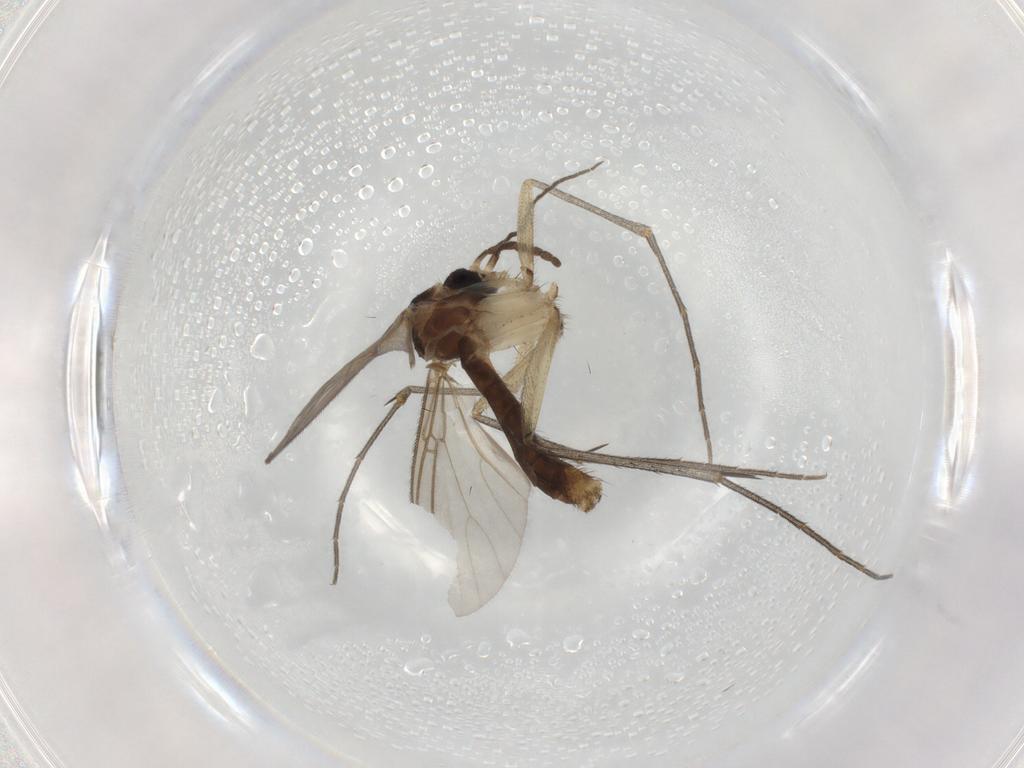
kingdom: Animalia
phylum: Arthropoda
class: Insecta
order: Diptera
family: Mycetophilidae
